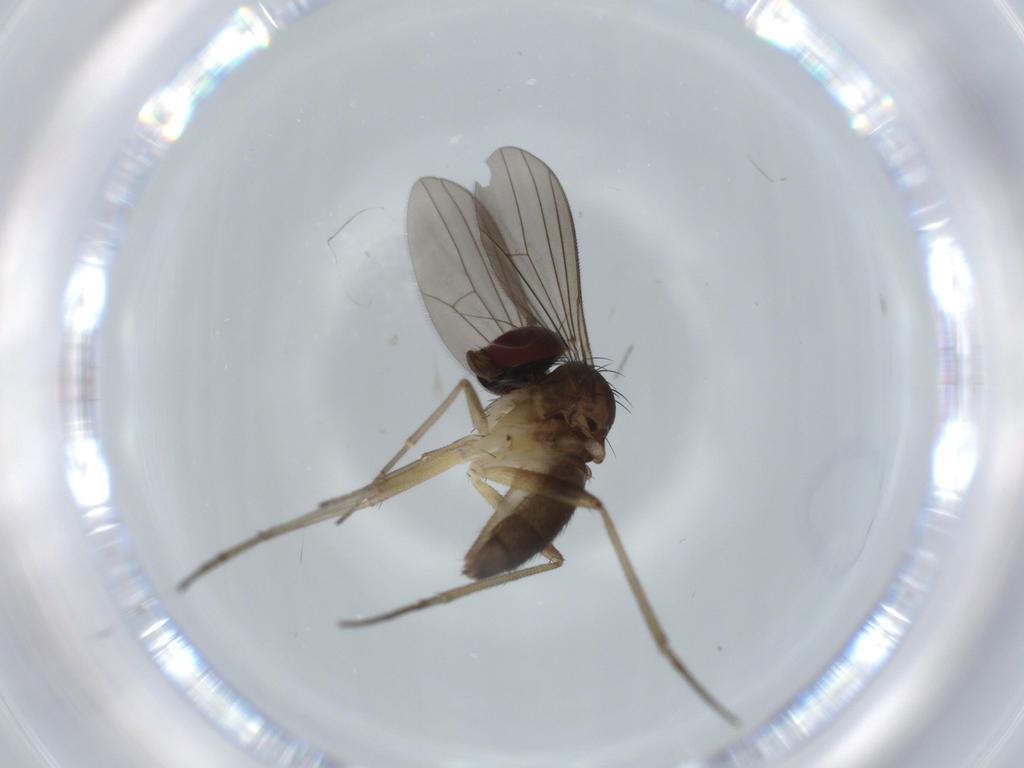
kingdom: Animalia
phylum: Arthropoda
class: Insecta
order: Diptera
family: Dolichopodidae
